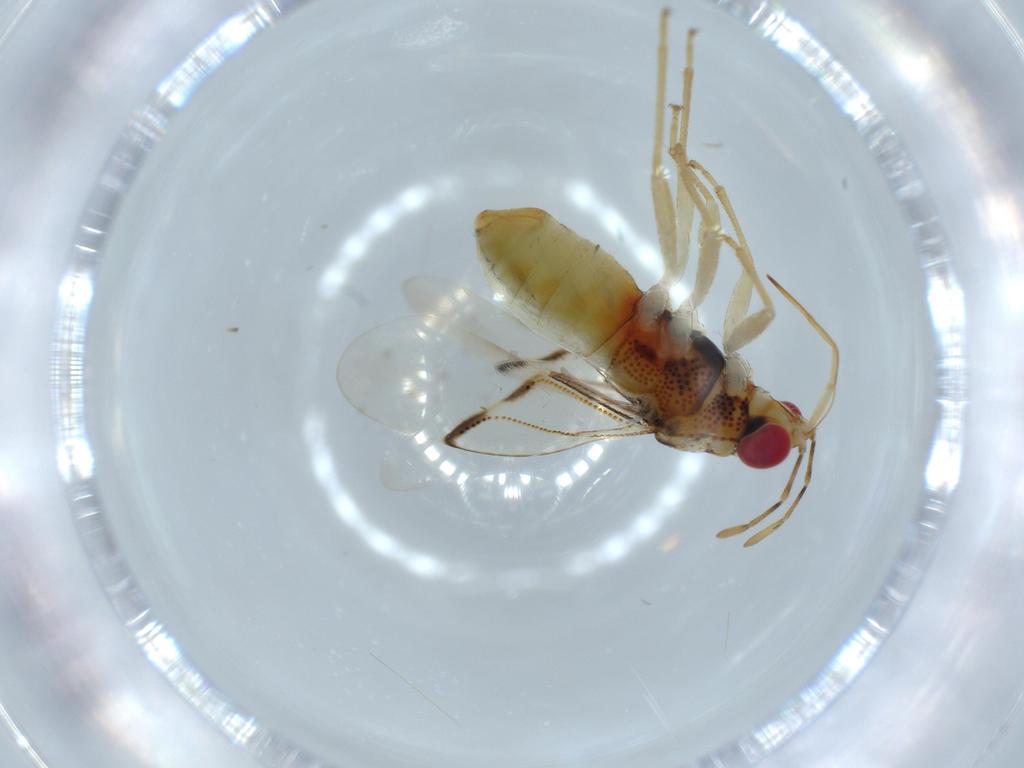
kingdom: Animalia
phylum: Arthropoda
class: Insecta
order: Hemiptera
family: Geocoridae
